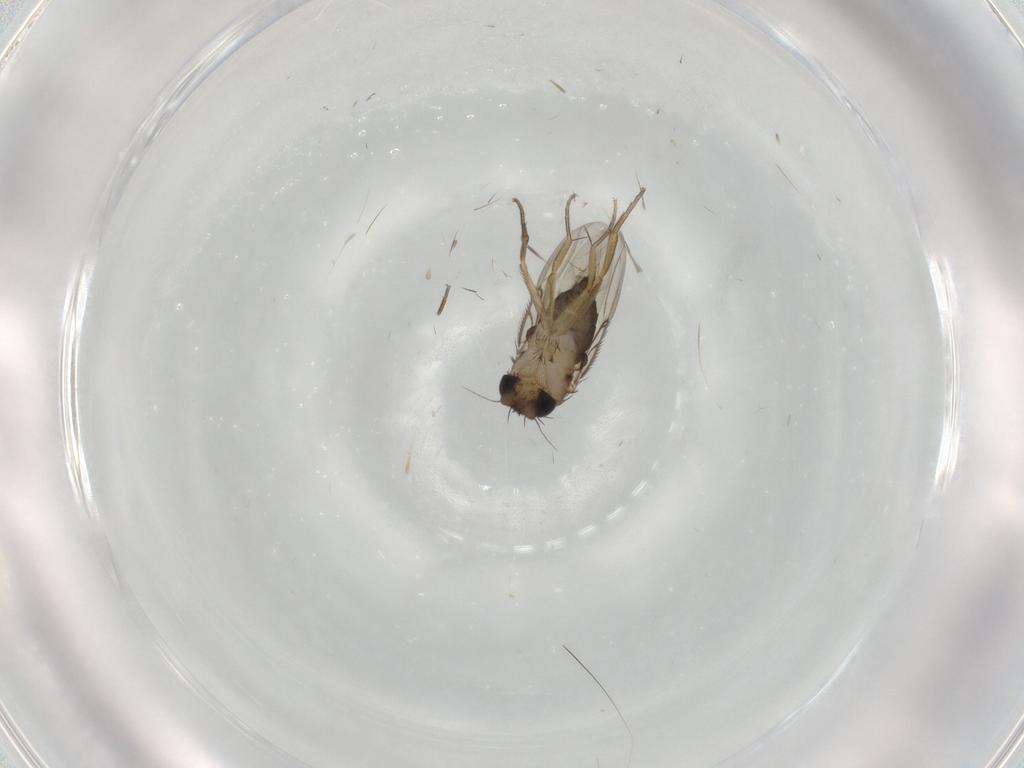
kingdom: Animalia
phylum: Arthropoda
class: Insecta
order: Diptera
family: Phoridae
